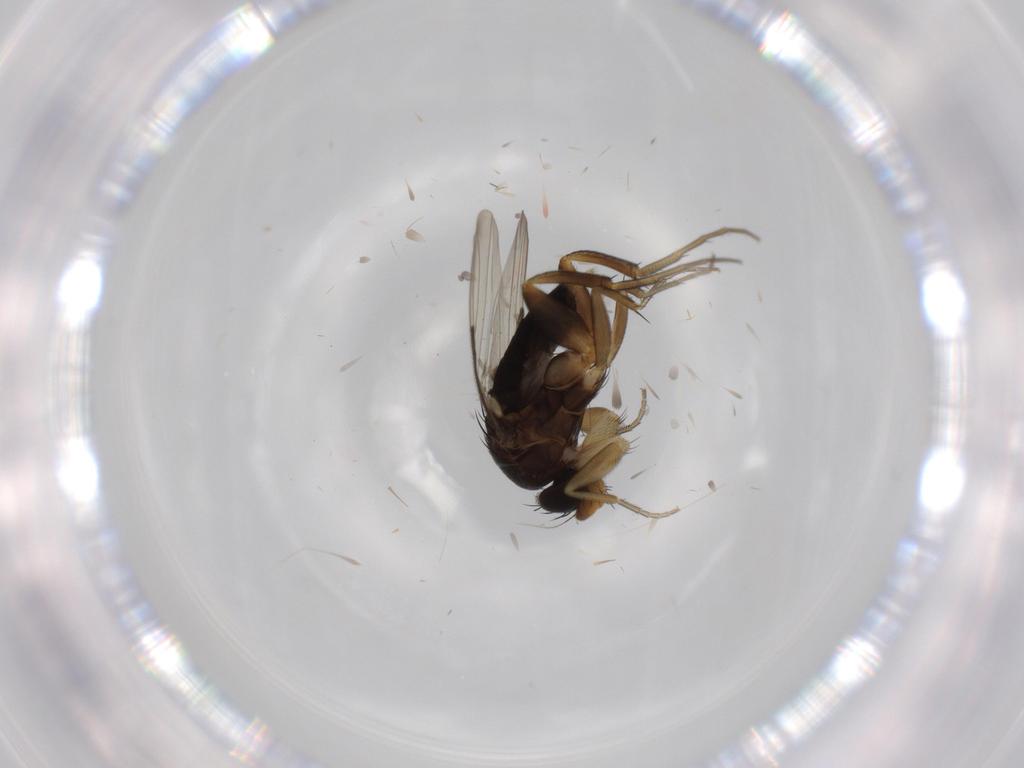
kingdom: Animalia
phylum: Arthropoda
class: Insecta
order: Diptera
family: Phoridae
